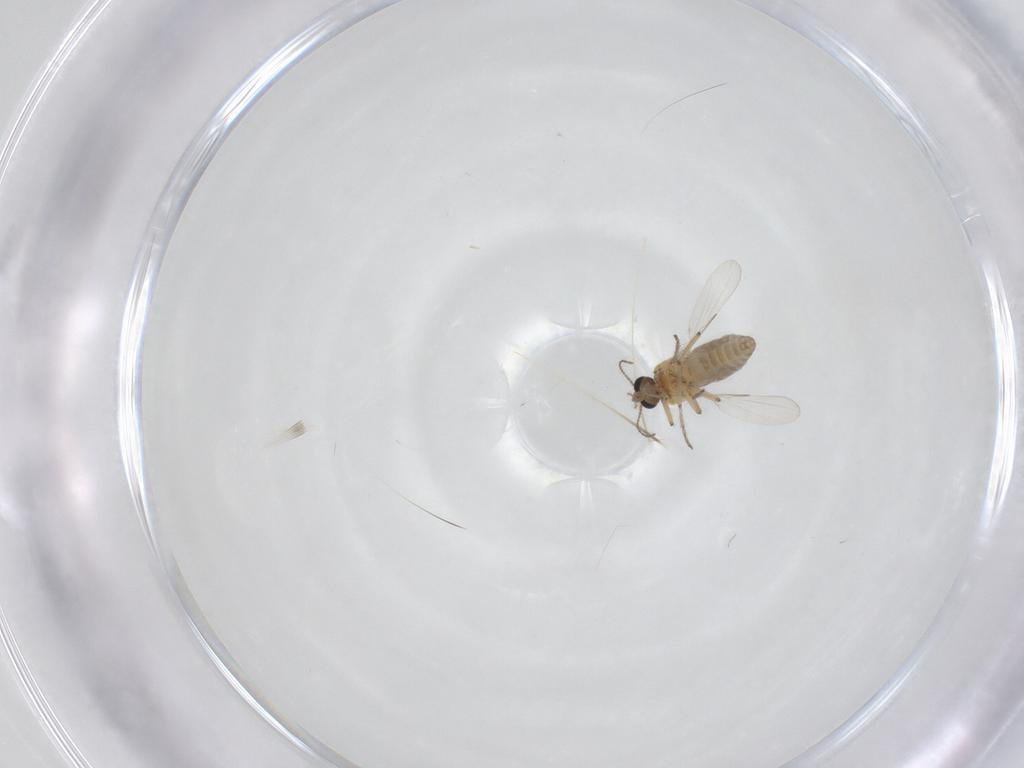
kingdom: Animalia
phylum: Arthropoda
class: Insecta
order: Diptera
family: Ceratopogonidae
